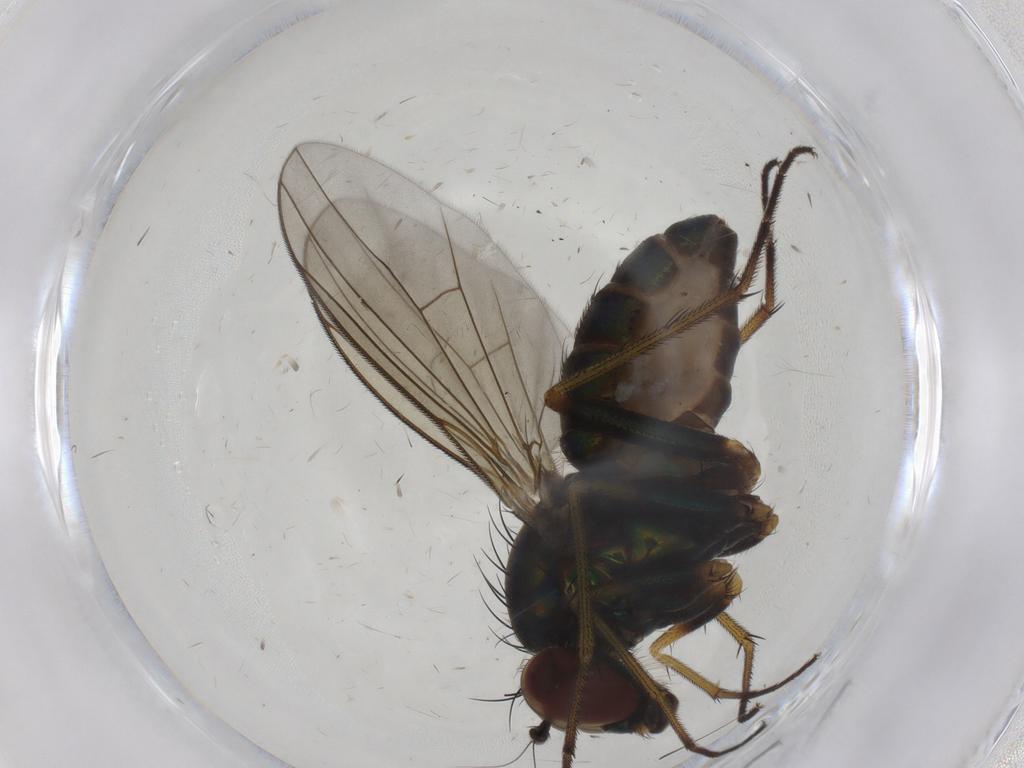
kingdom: Animalia
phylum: Arthropoda
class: Insecta
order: Diptera
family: Dolichopodidae
